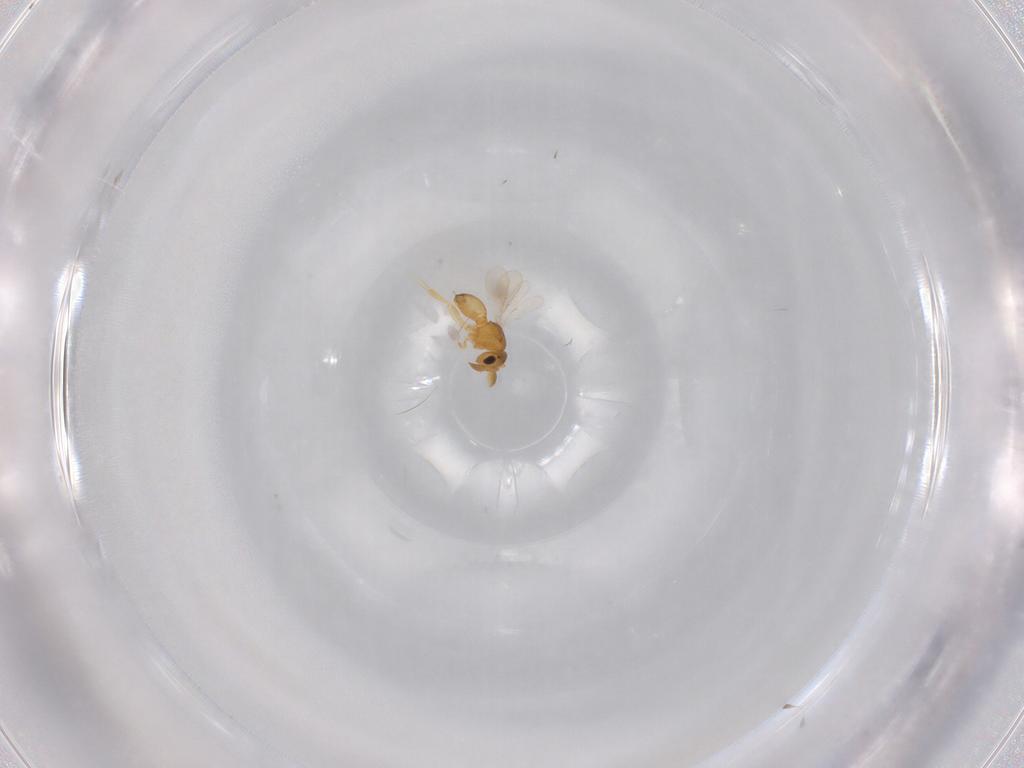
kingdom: Animalia
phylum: Arthropoda
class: Insecta
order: Hymenoptera
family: Scelionidae
